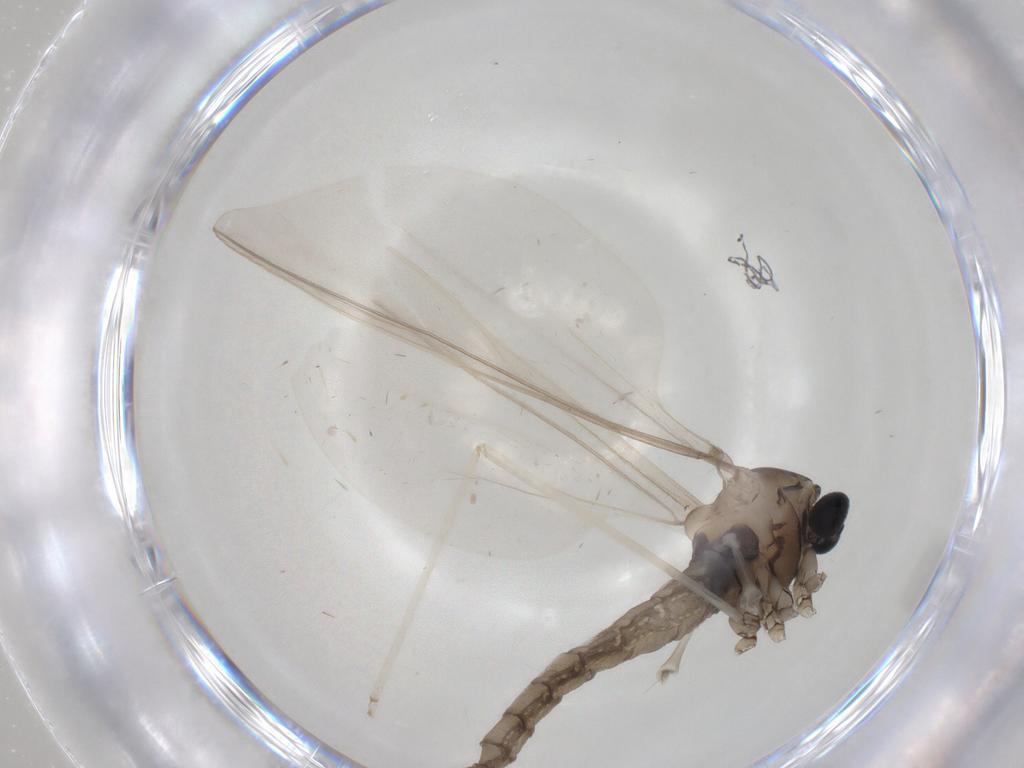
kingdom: Animalia
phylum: Arthropoda
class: Insecta
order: Diptera
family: Cecidomyiidae
